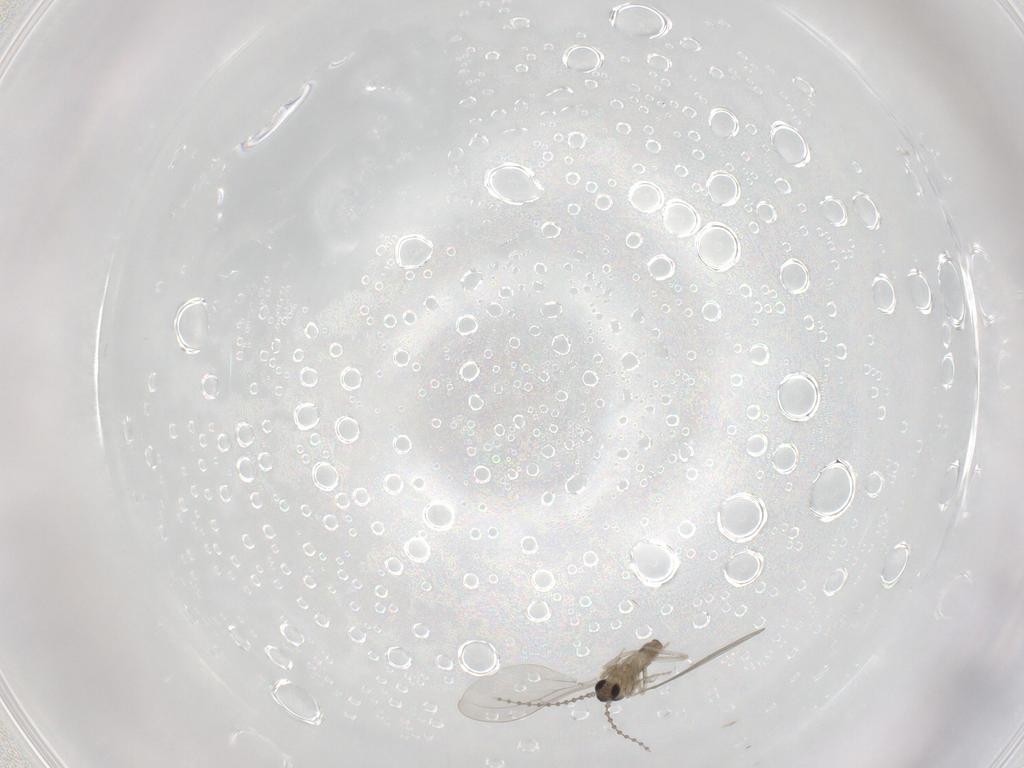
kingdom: Animalia
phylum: Arthropoda
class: Insecta
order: Diptera
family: Cecidomyiidae
